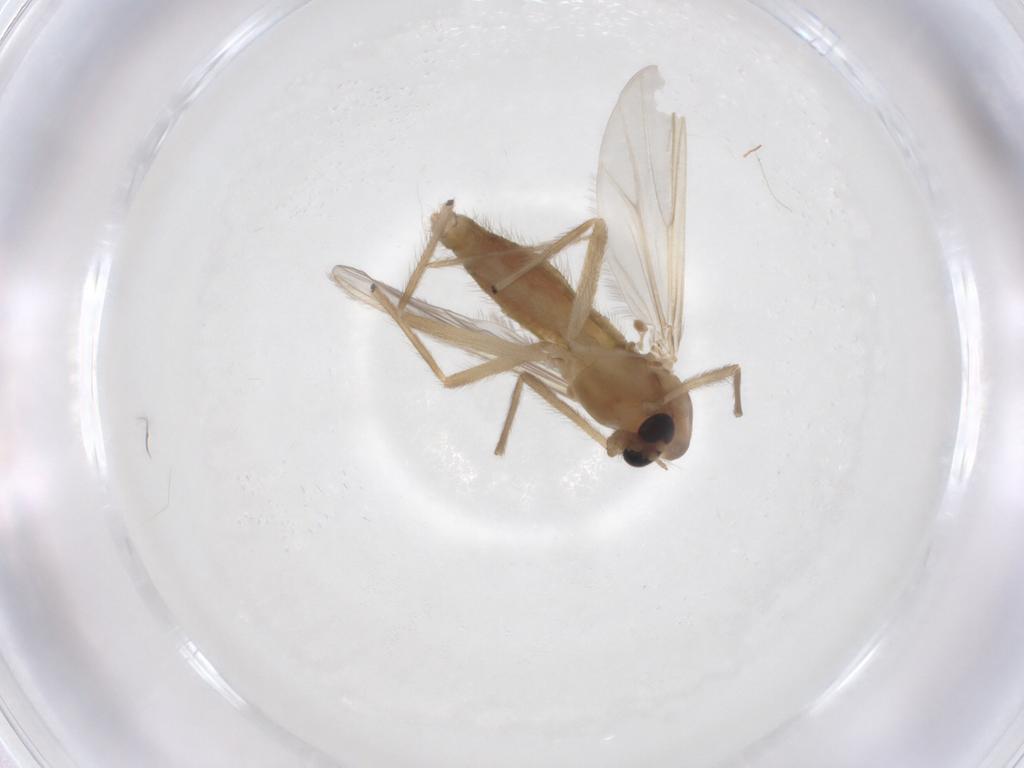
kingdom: Animalia
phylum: Arthropoda
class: Insecta
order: Diptera
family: Chironomidae
